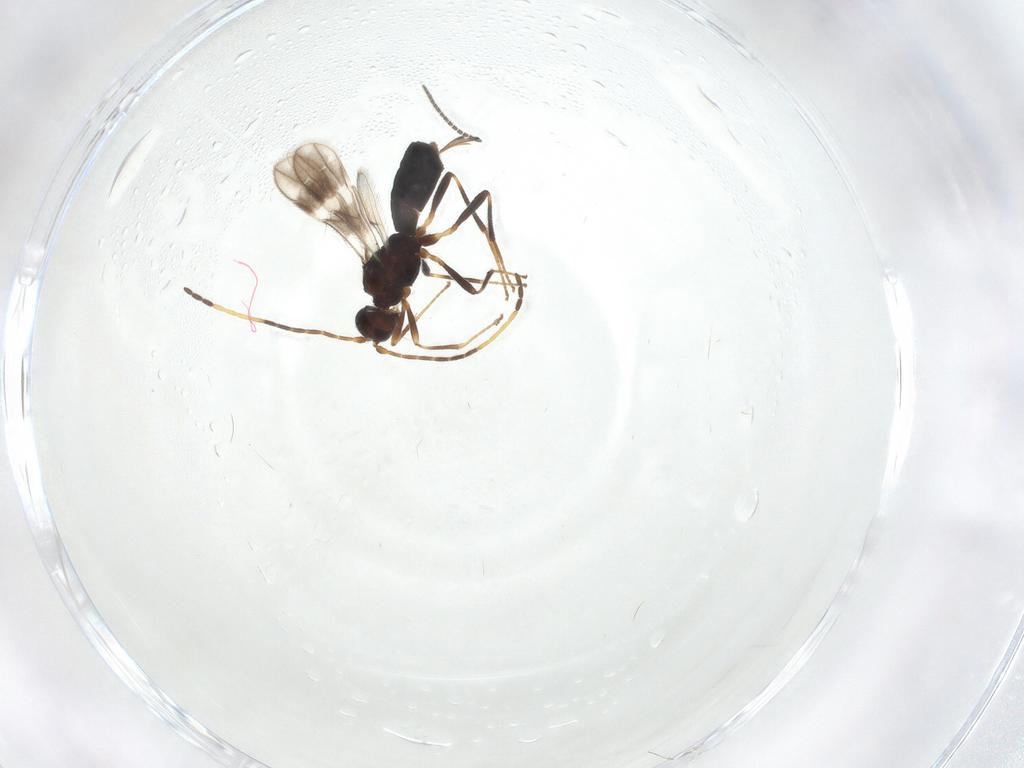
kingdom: Animalia
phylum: Arthropoda
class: Insecta
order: Hymenoptera
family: Braconidae
